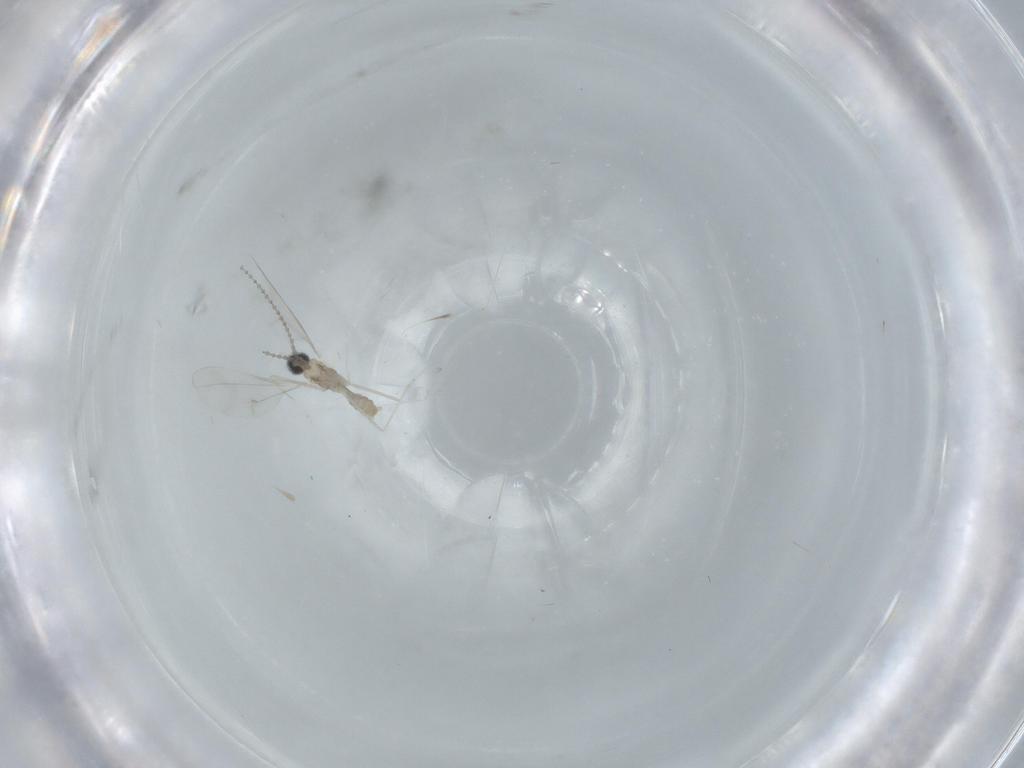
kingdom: Animalia
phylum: Arthropoda
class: Insecta
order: Diptera
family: Cecidomyiidae
